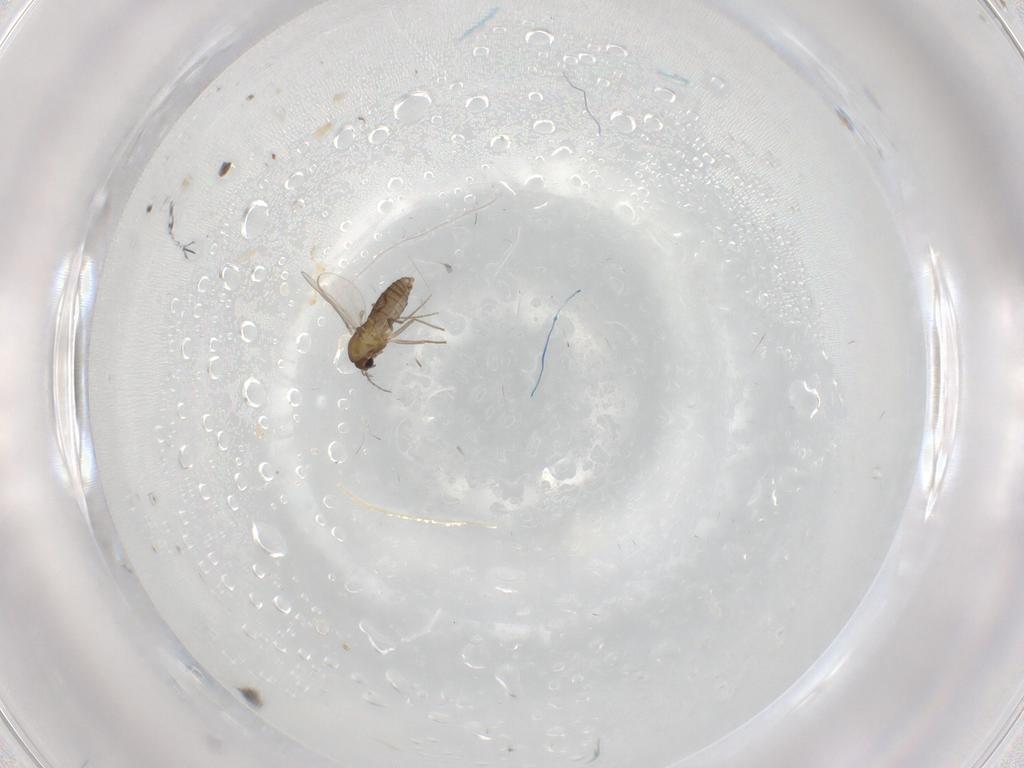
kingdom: Animalia
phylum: Arthropoda
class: Insecta
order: Diptera
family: Chironomidae
